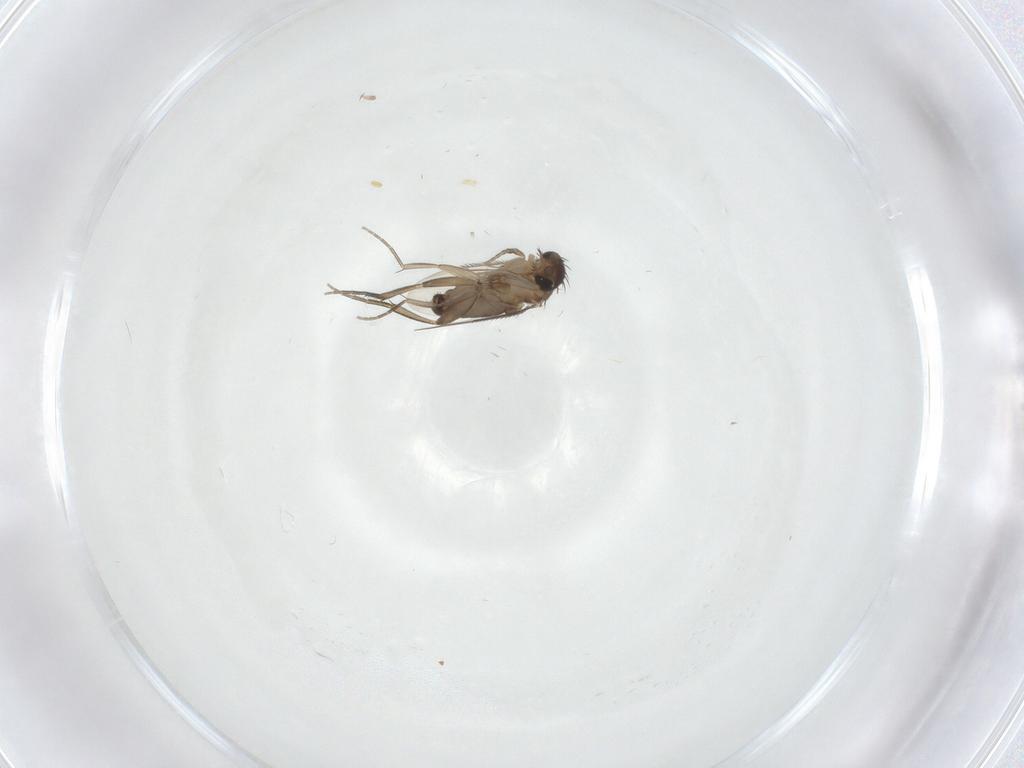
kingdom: Animalia
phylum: Arthropoda
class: Insecta
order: Diptera
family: Phoridae
